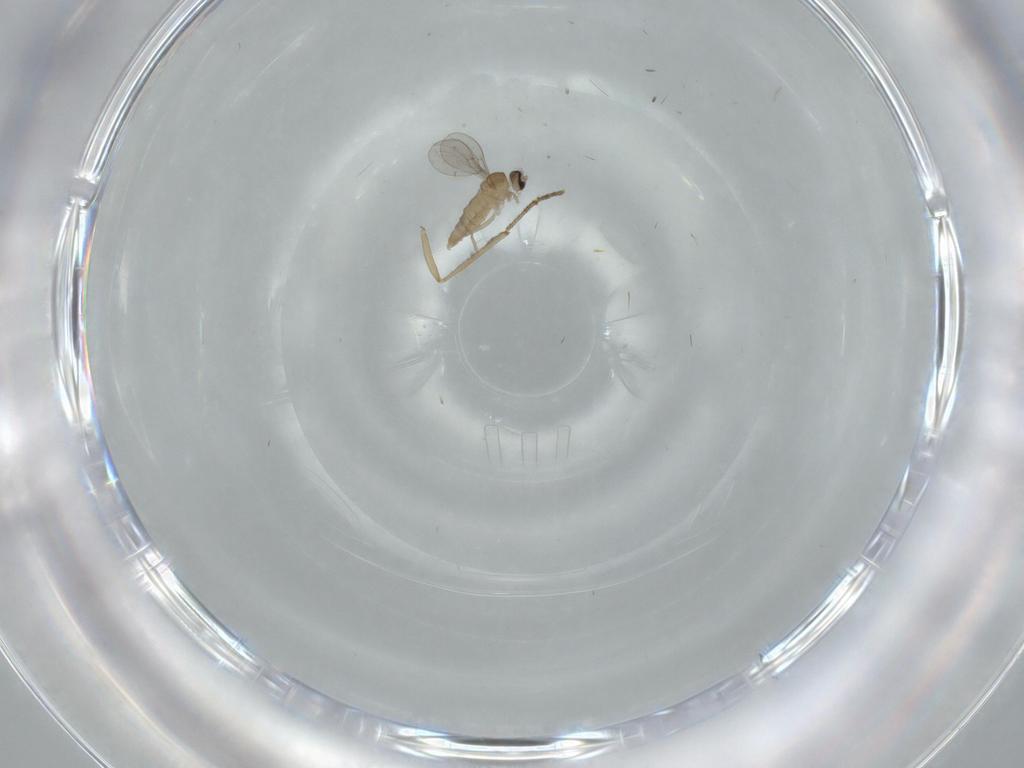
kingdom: Animalia
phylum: Arthropoda
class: Insecta
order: Diptera
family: Cecidomyiidae
